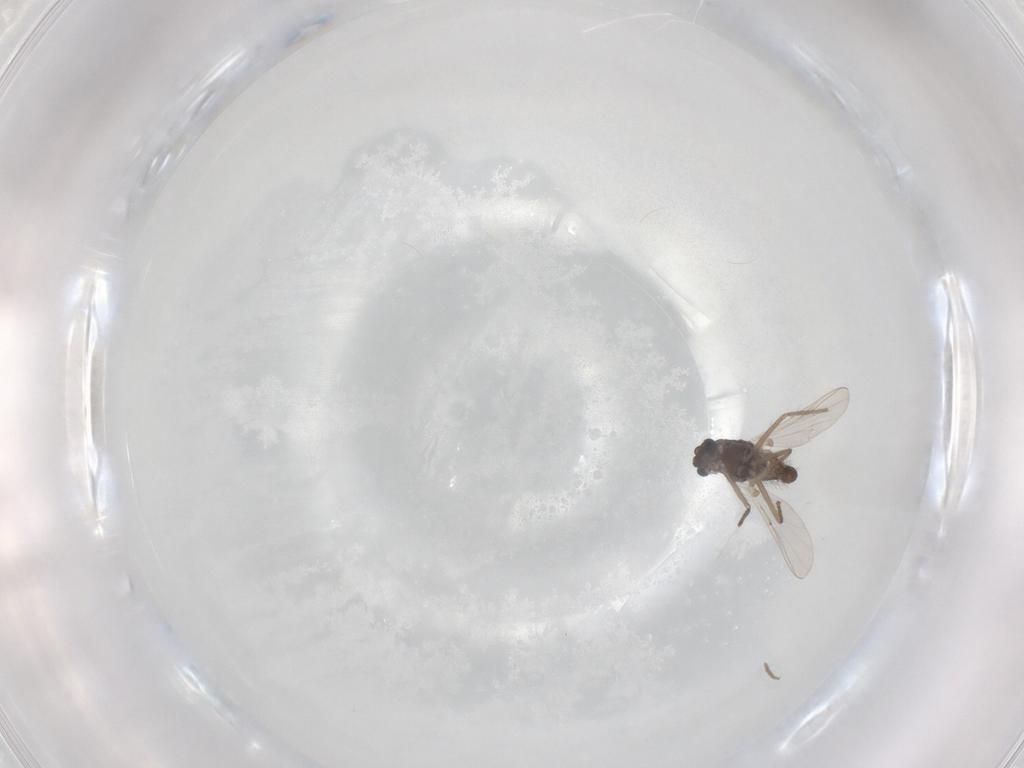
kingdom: Animalia
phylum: Arthropoda
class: Insecta
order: Diptera
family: Chironomidae
